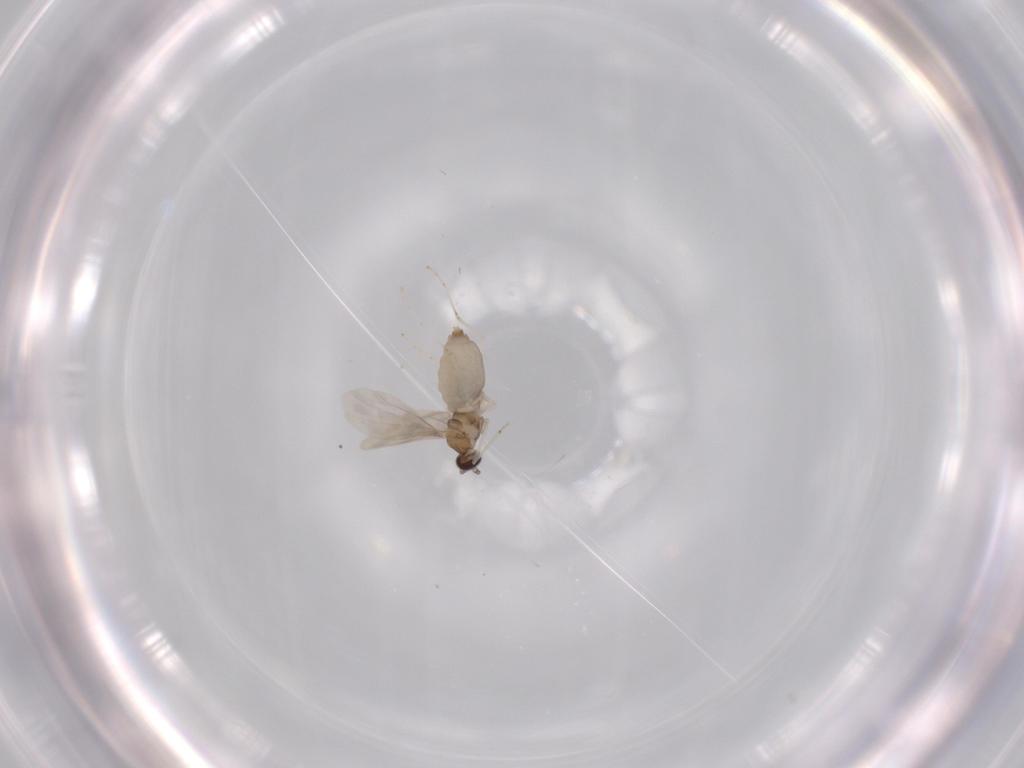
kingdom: Animalia
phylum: Arthropoda
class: Insecta
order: Diptera
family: Cecidomyiidae
